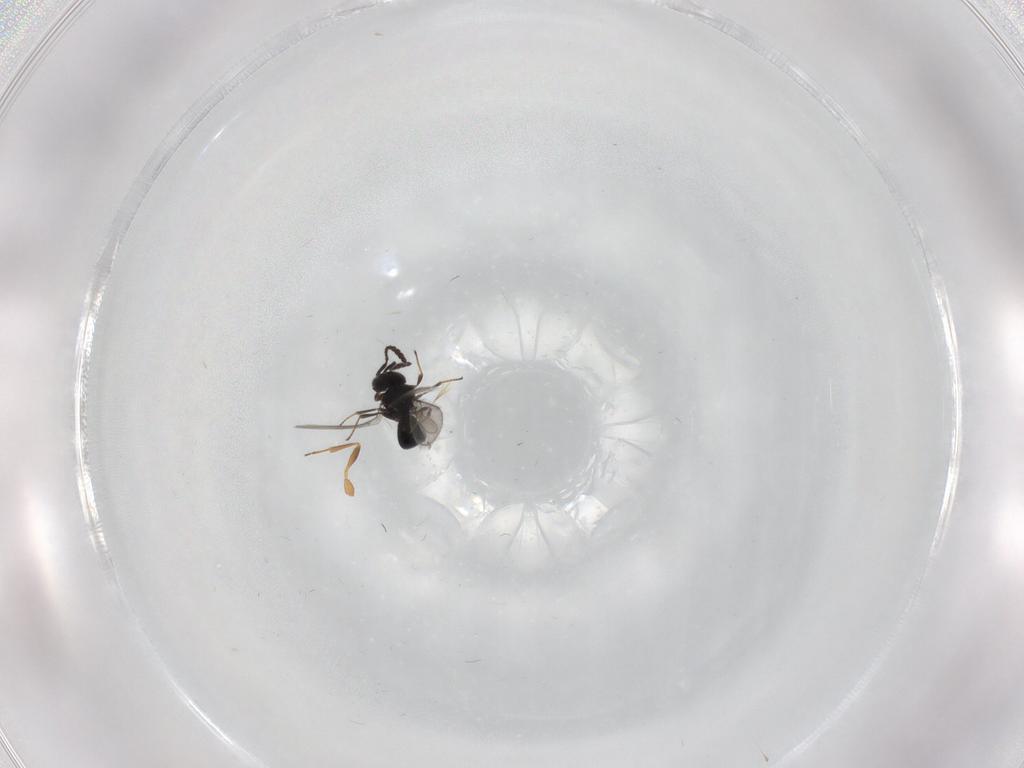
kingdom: Animalia
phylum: Arthropoda
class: Insecta
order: Hymenoptera
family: Scelionidae
